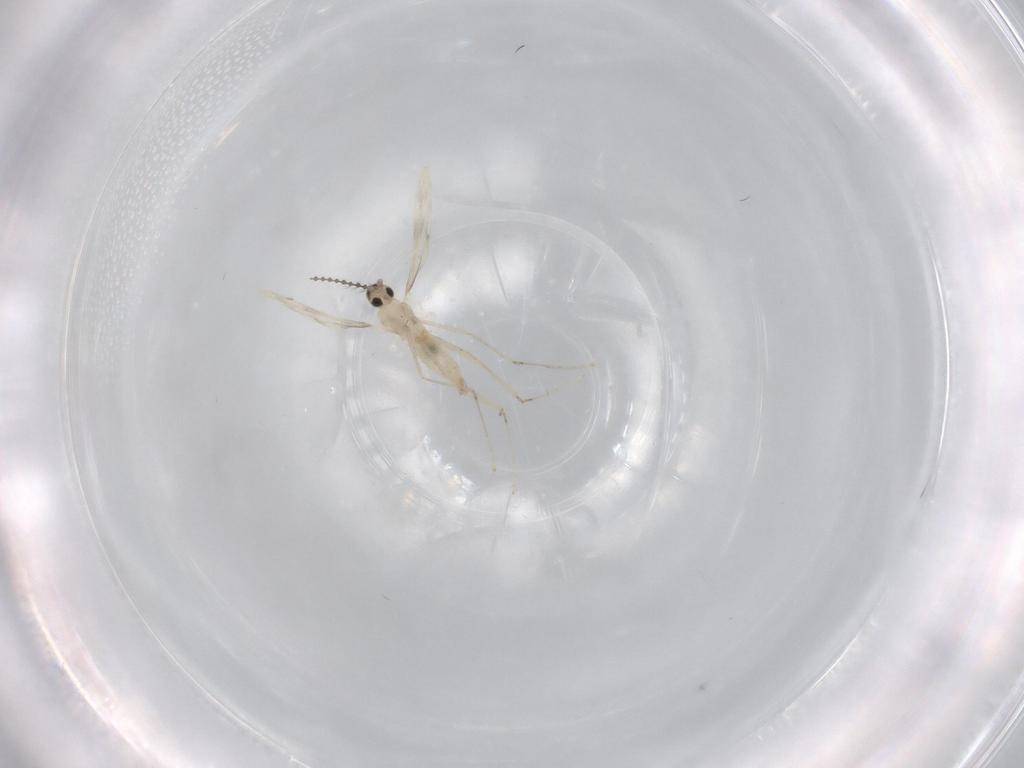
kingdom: Animalia
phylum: Arthropoda
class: Insecta
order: Diptera
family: Cecidomyiidae
